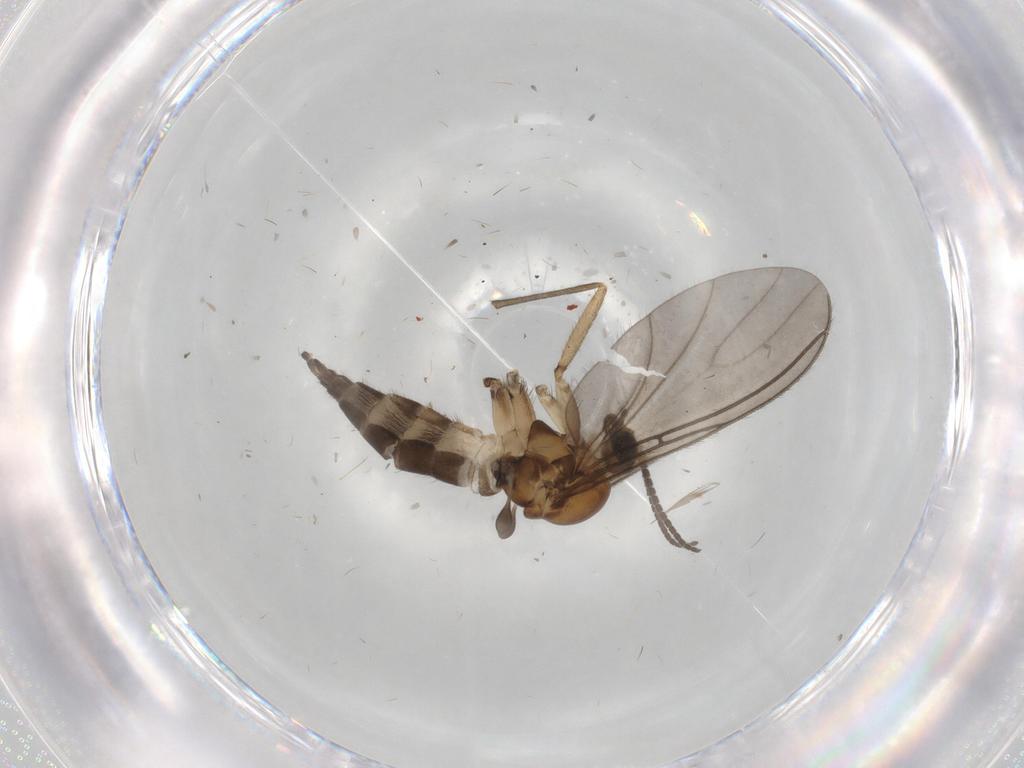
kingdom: Animalia
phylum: Arthropoda
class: Insecta
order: Diptera
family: Sciaridae
